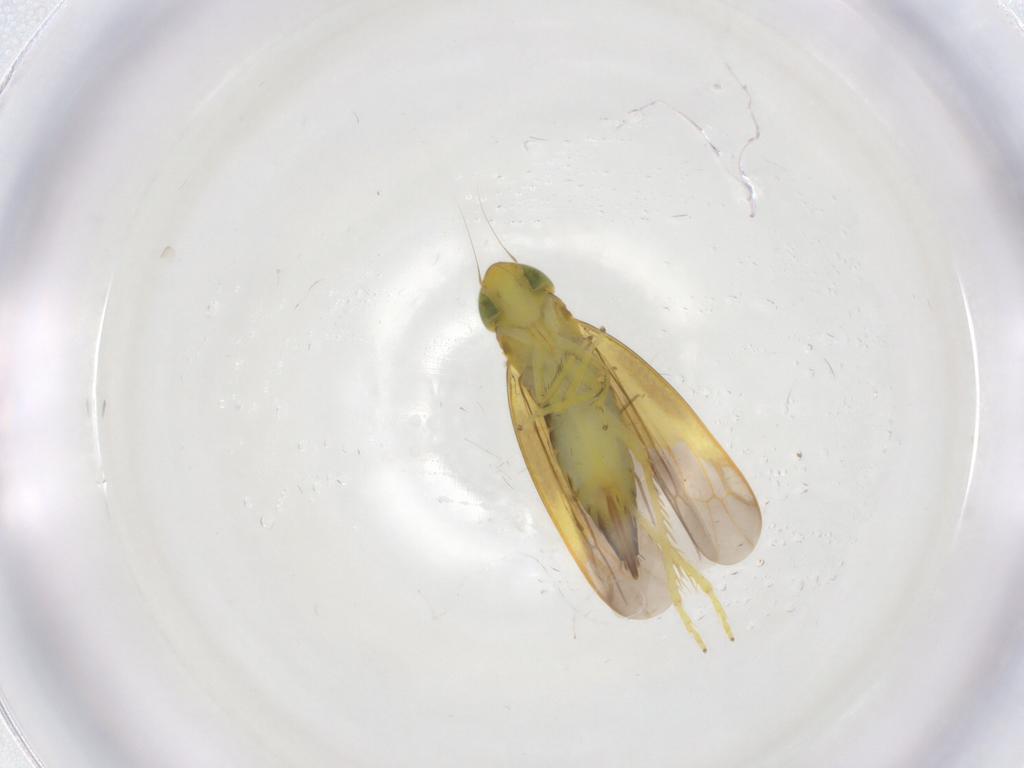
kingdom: Animalia
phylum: Arthropoda
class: Insecta
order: Hemiptera
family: Cicadellidae
